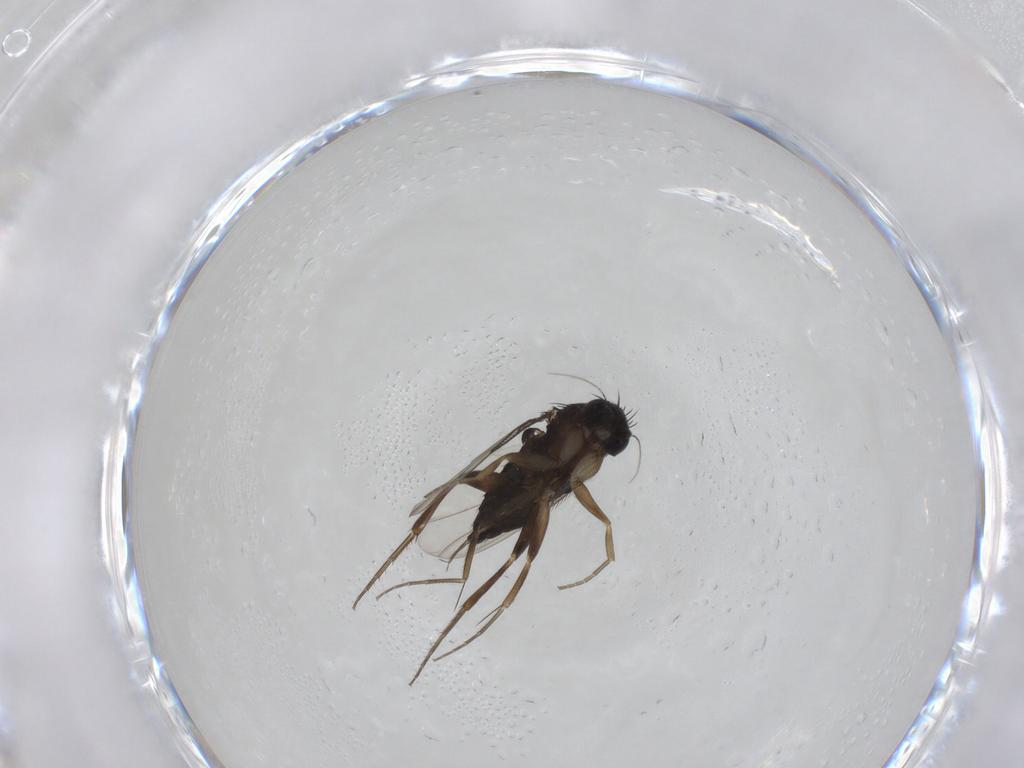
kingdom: Animalia
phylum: Arthropoda
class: Insecta
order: Diptera
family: Phoridae
